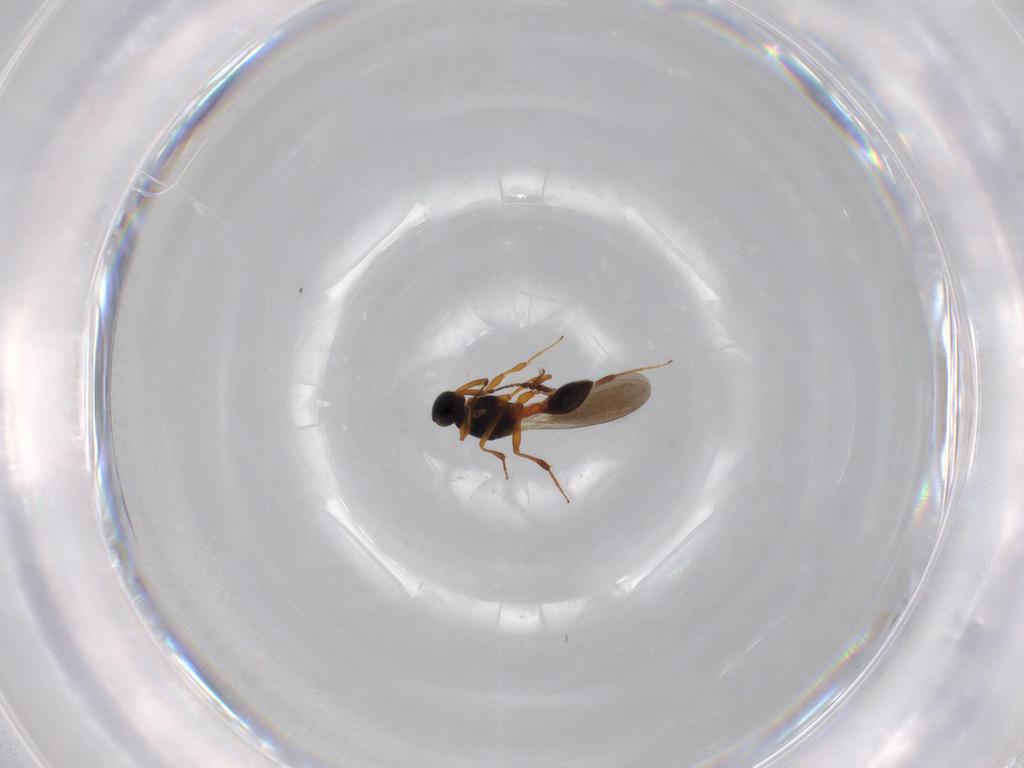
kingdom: Animalia
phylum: Arthropoda
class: Insecta
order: Hymenoptera
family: Platygastridae
